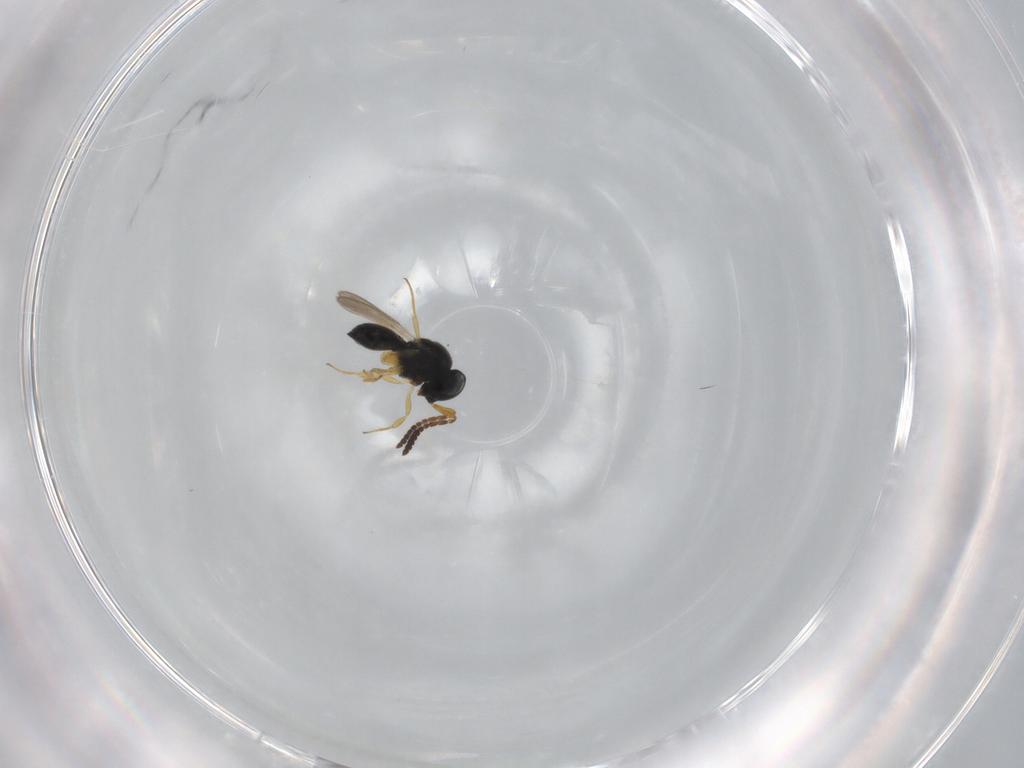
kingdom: Animalia
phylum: Arthropoda
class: Insecta
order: Hymenoptera
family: Scelionidae
